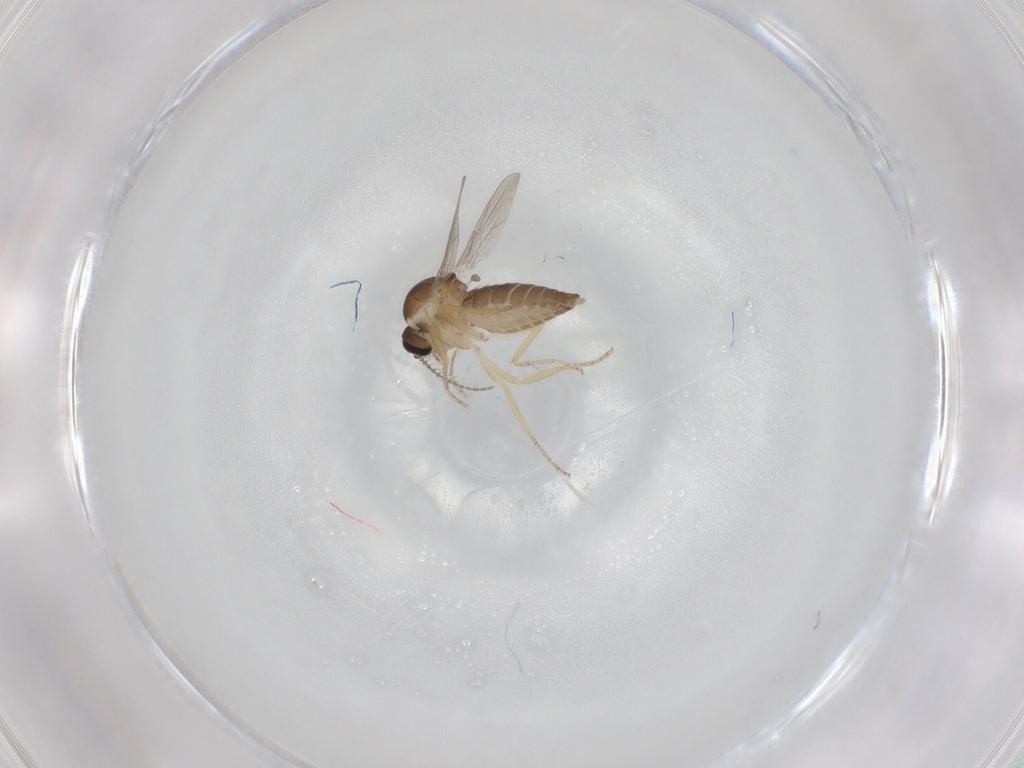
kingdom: Animalia
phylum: Arthropoda
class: Insecta
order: Diptera
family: Ceratopogonidae
